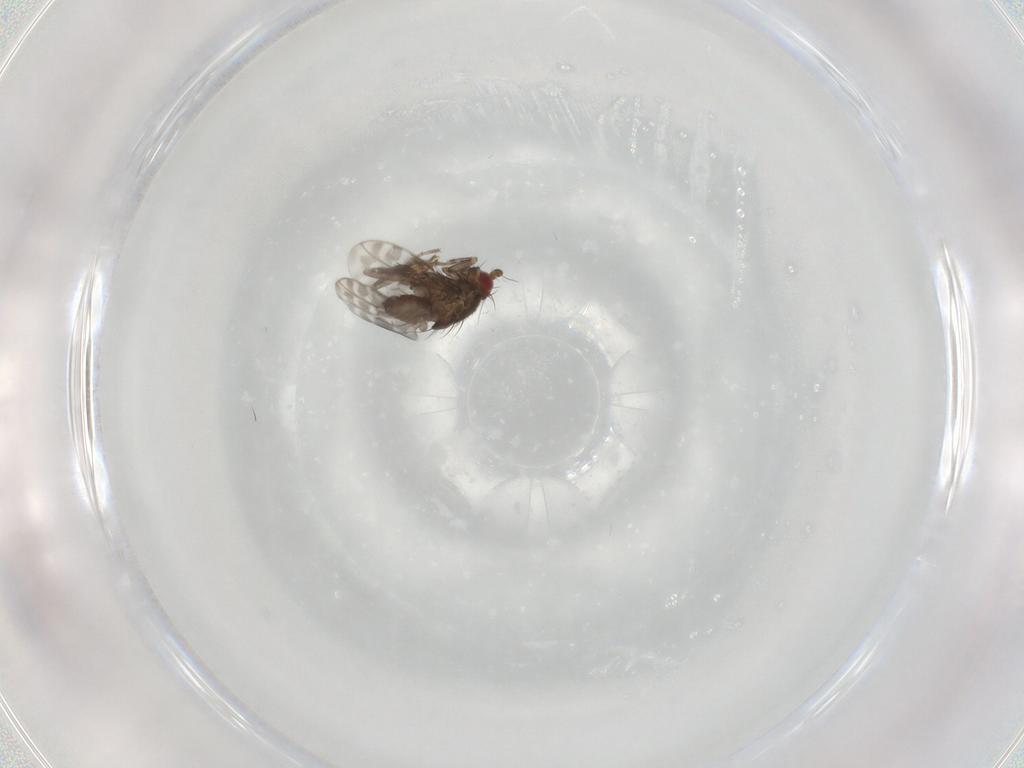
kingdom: Animalia
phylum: Arthropoda
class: Insecta
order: Diptera
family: Sphaeroceridae
